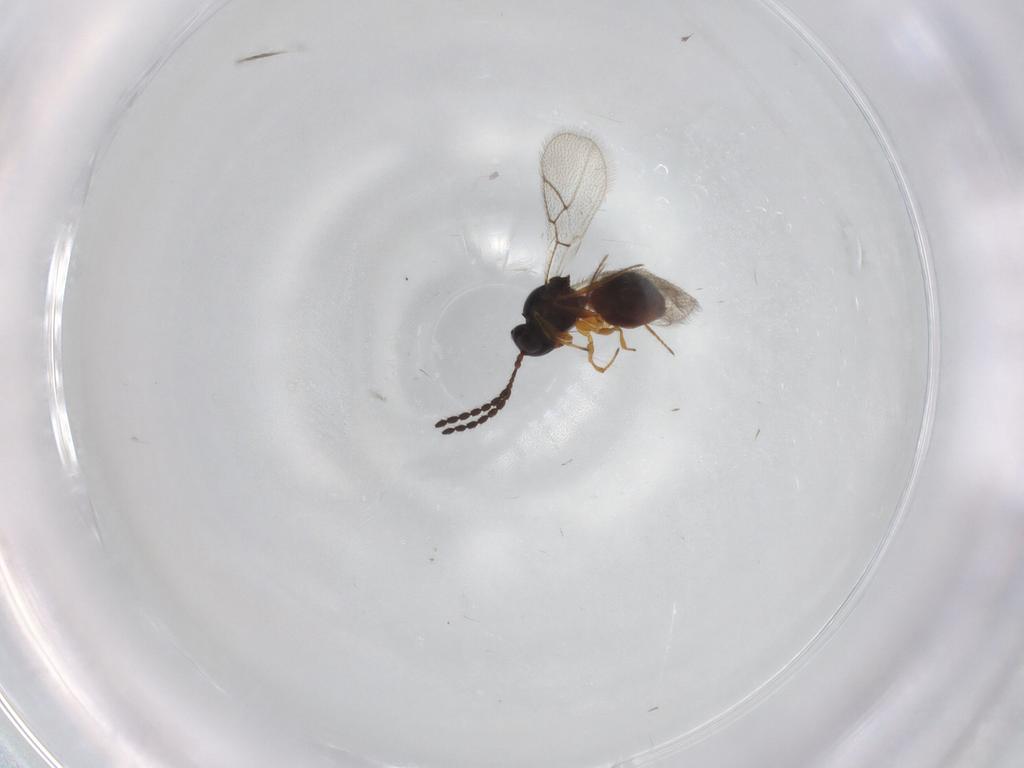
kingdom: Animalia
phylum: Arthropoda
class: Insecta
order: Hymenoptera
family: Figitidae
